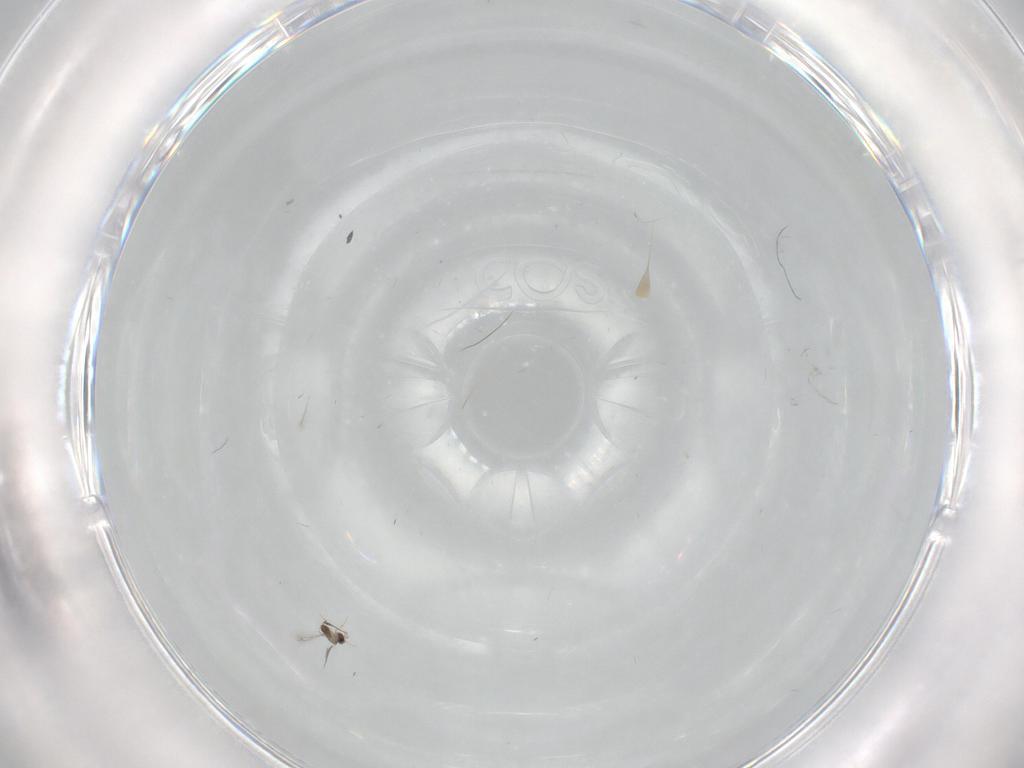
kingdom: Animalia
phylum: Arthropoda
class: Insecta
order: Diptera
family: Cecidomyiidae
